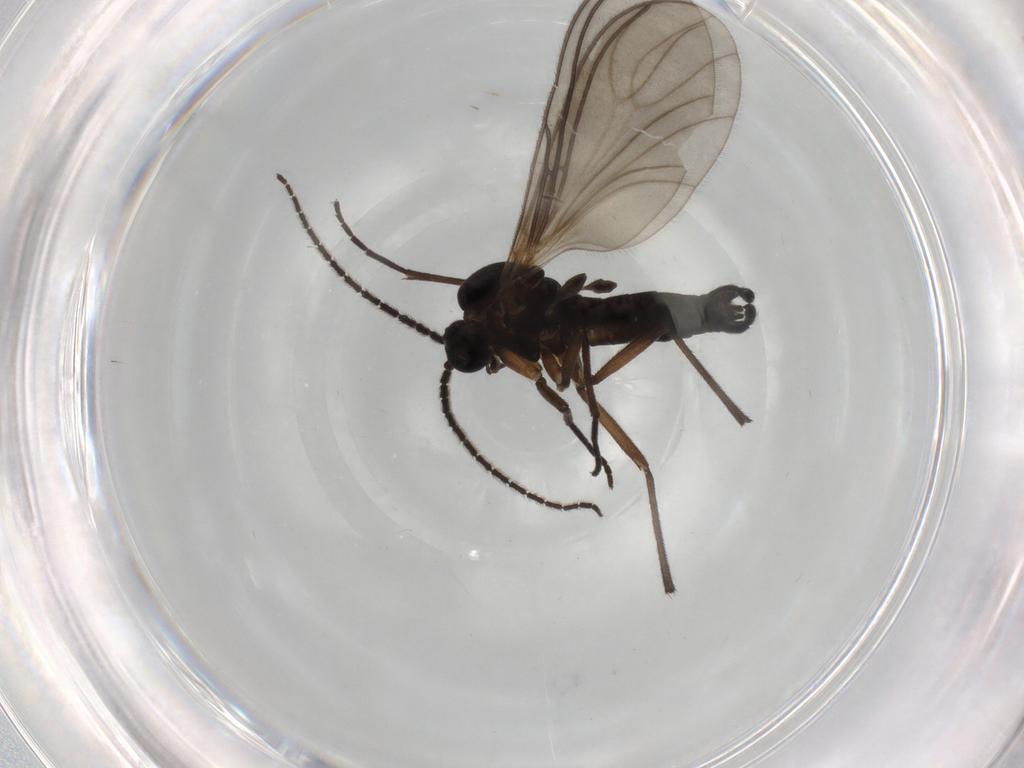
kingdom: Animalia
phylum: Arthropoda
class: Insecta
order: Diptera
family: Sciaridae
